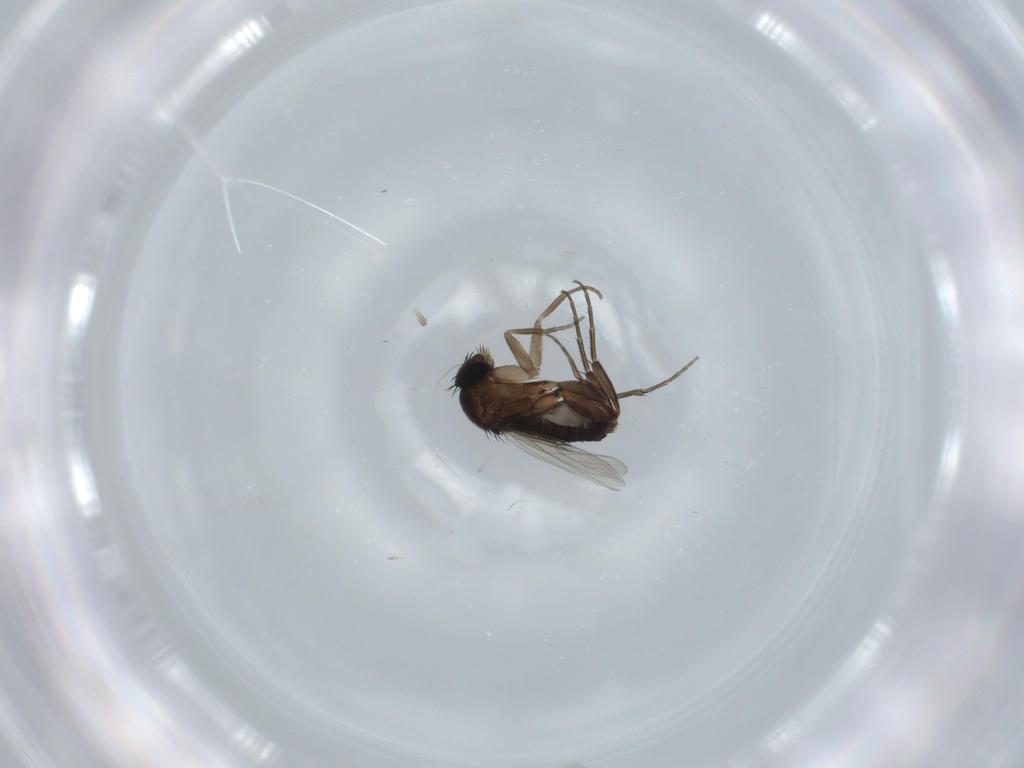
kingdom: Animalia
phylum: Arthropoda
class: Insecta
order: Diptera
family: Phoridae
